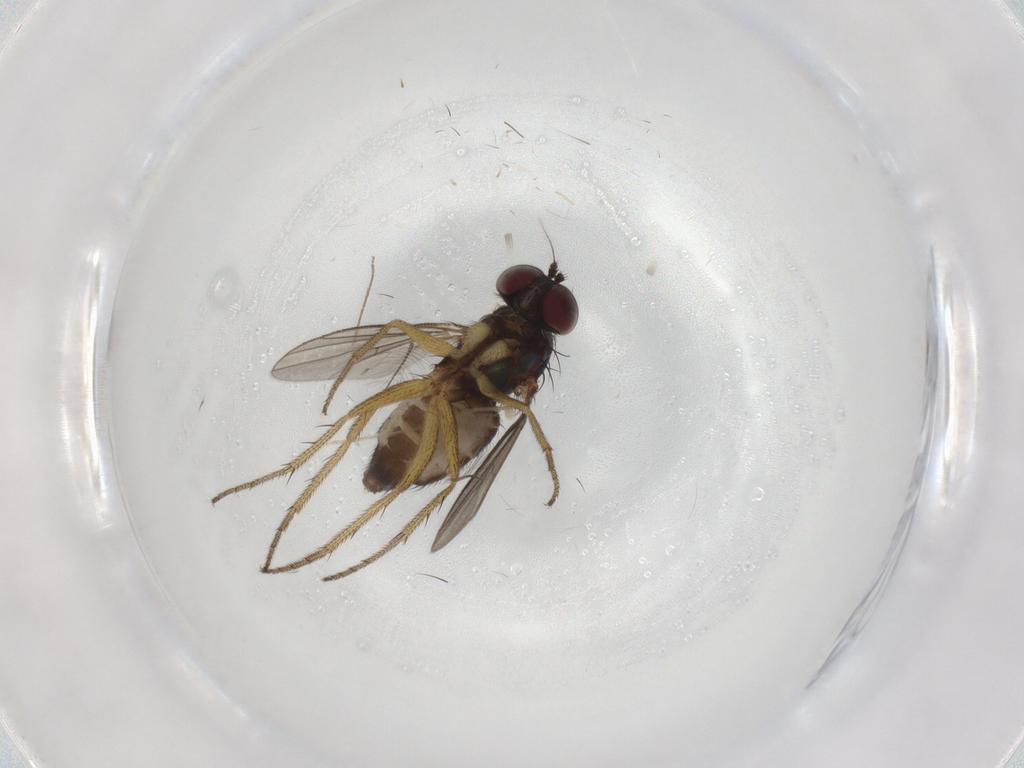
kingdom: Animalia
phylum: Arthropoda
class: Insecta
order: Diptera
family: Dolichopodidae
